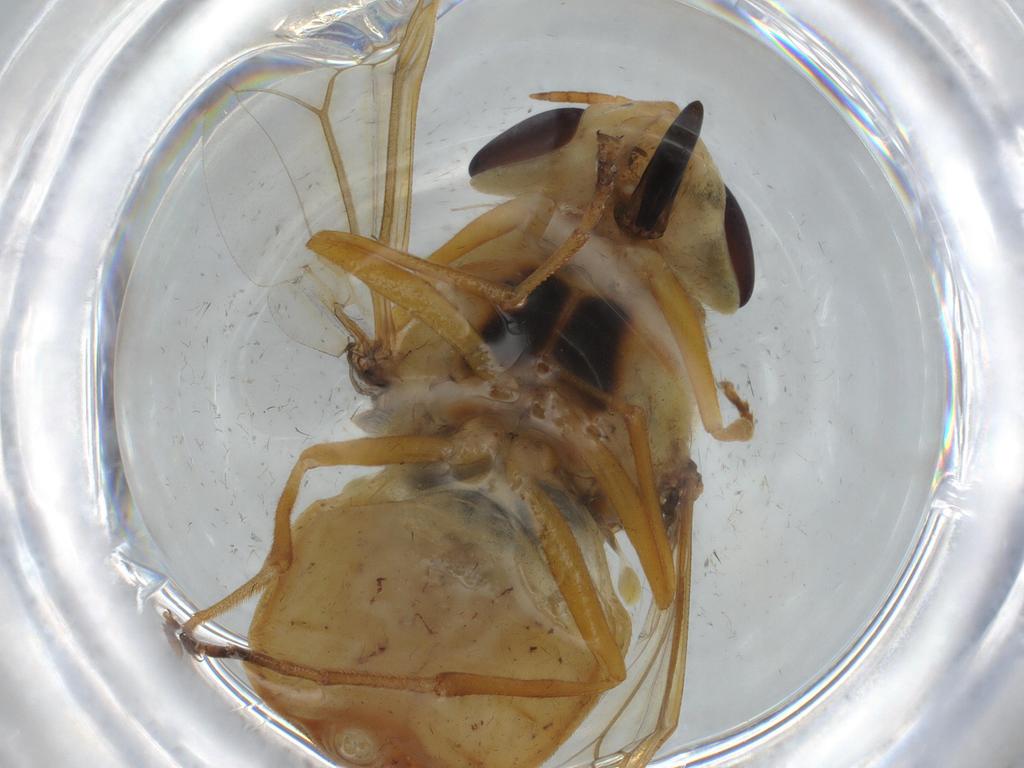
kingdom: Animalia
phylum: Arthropoda
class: Insecta
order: Diptera
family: Chironomidae
